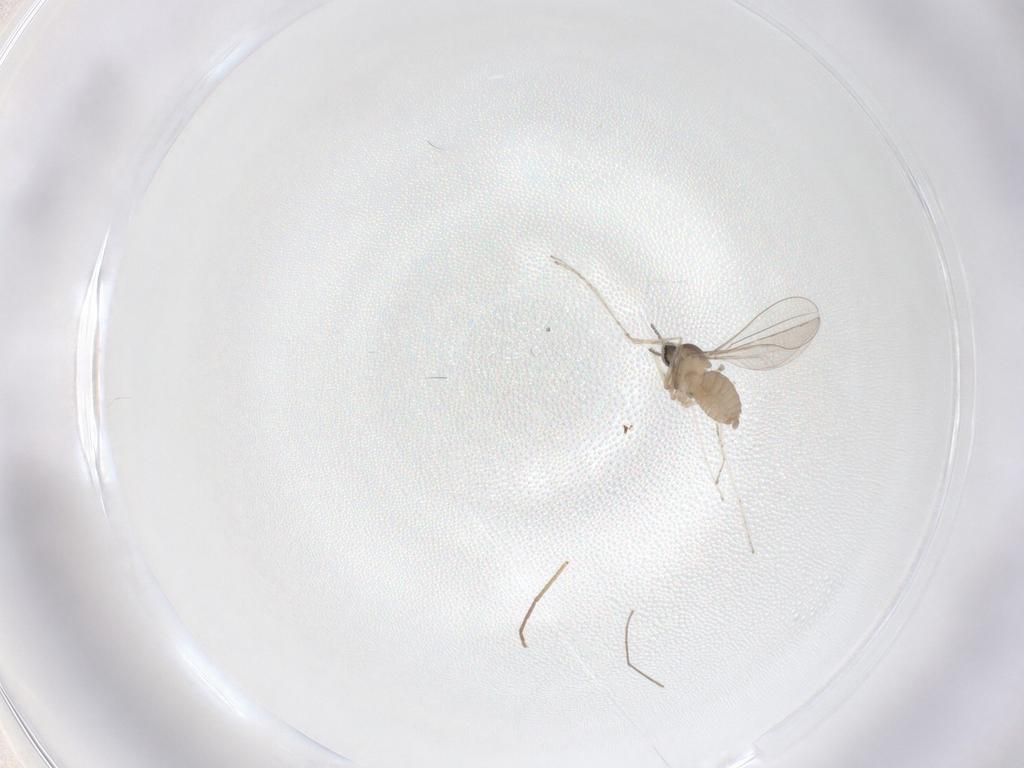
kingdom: Animalia
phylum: Arthropoda
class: Insecta
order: Diptera
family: Cecidomyiidae
